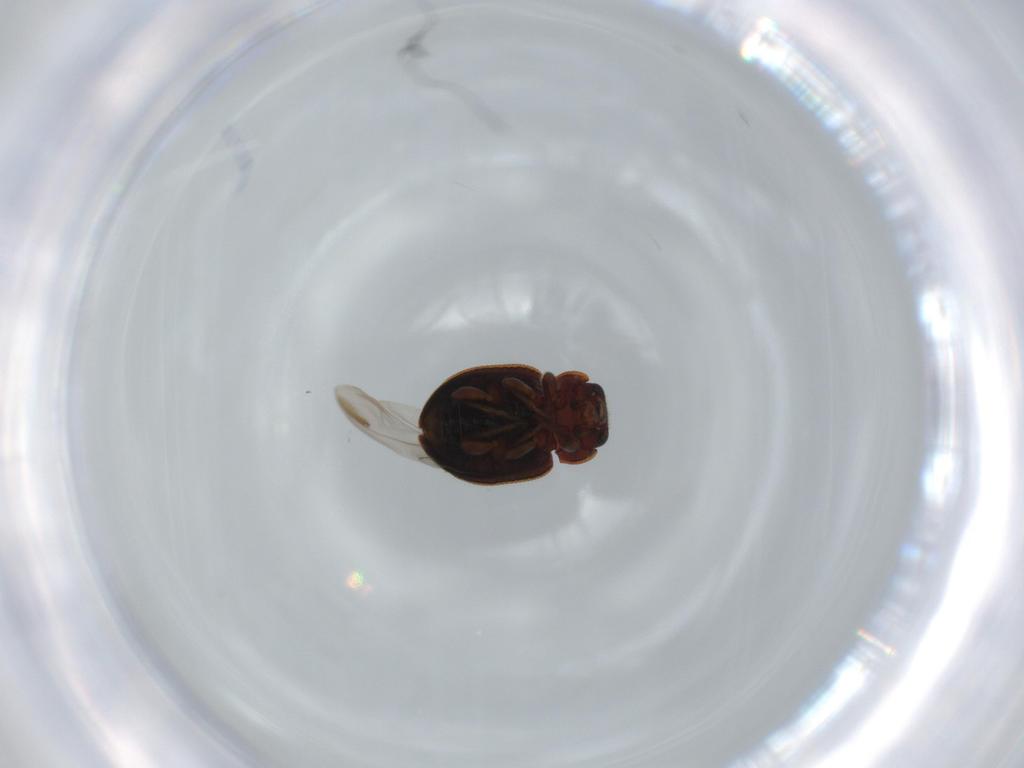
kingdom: Animalia
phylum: Arthropoda
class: Insecta
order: Coleoptera
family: Coccinellidae
